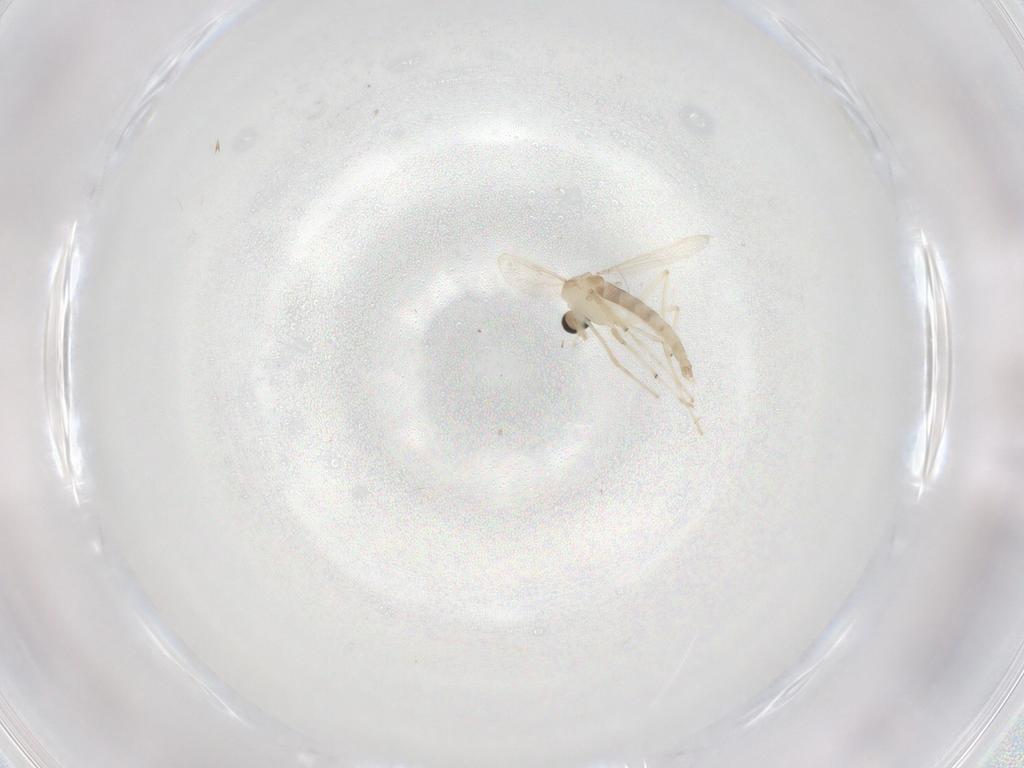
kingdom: Animalia
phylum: Arthropoda
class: Insecta
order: Diptera
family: Chironomidae
